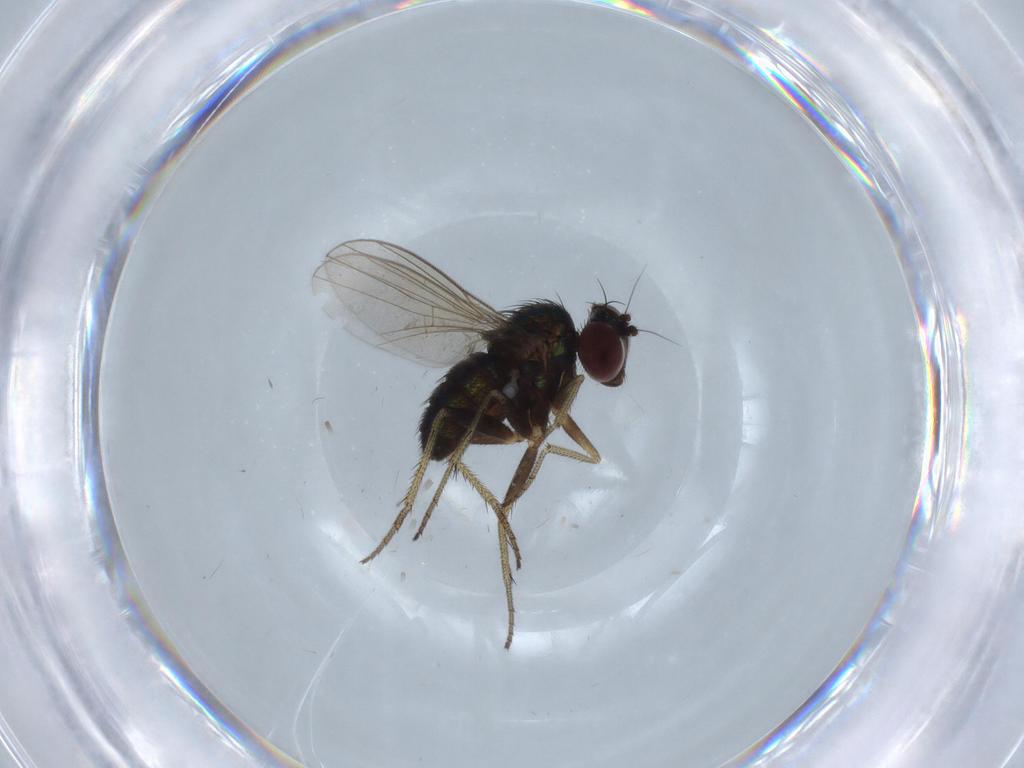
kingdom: Animalia
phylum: Arthropoda
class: Insecta
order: Diptera
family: Dolichopodidae
